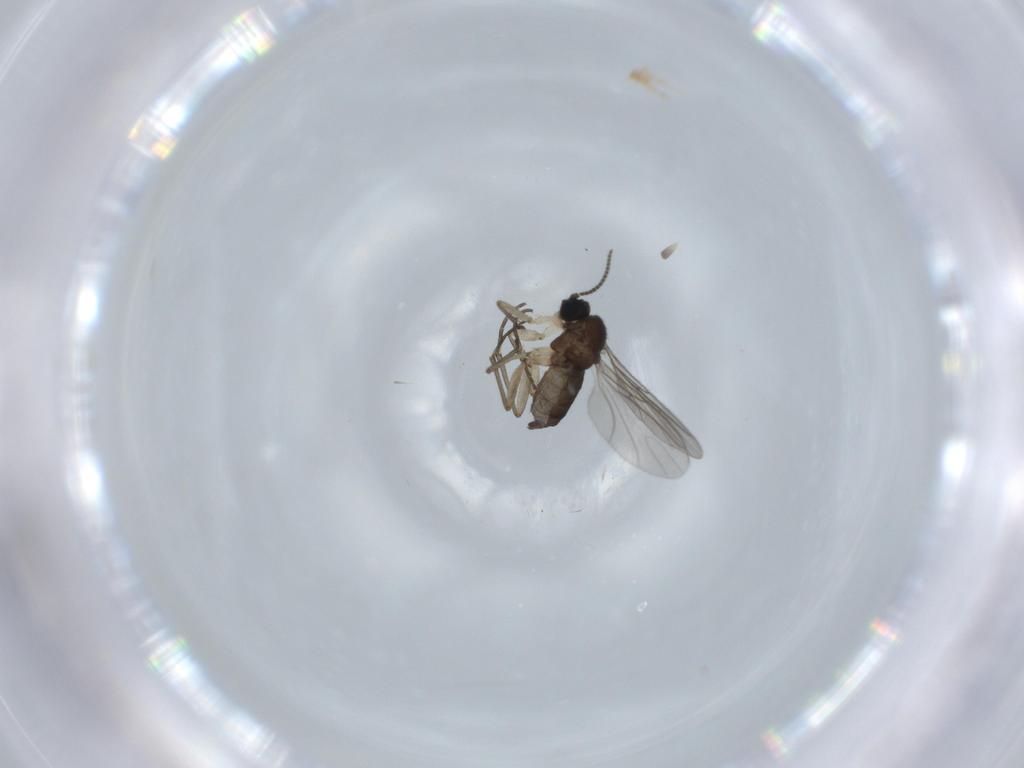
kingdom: Animalia
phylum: Arthropoda
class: Insecta
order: Diptera
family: Sciaridae
